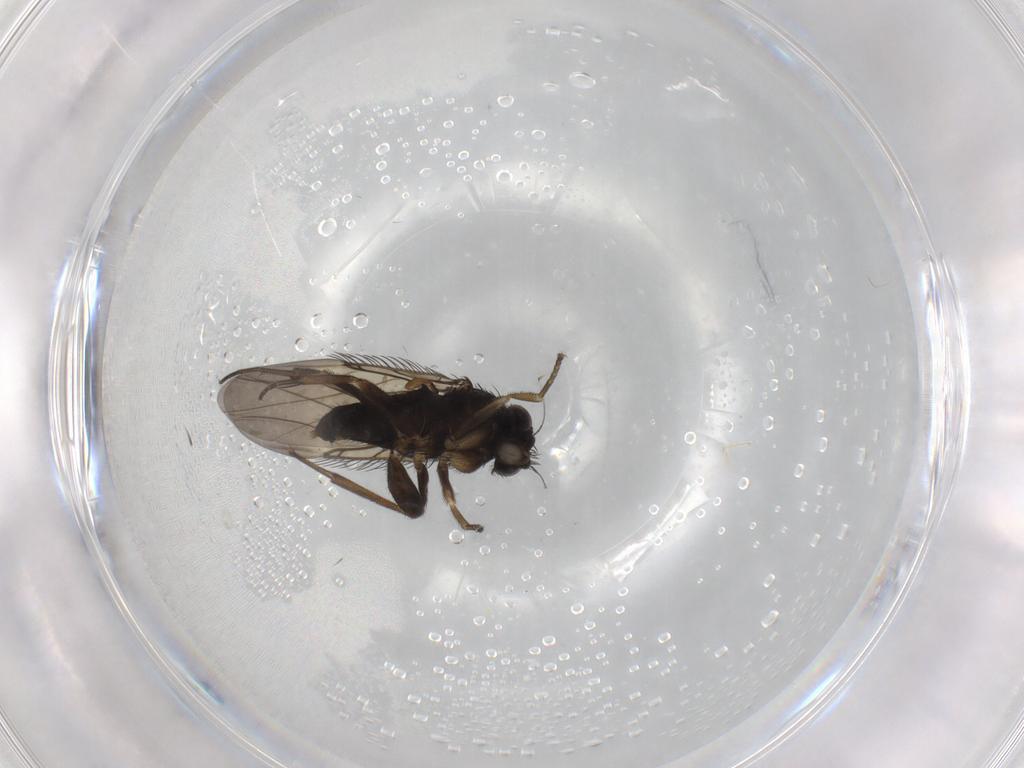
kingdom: Animalia
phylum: Arthropoda
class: Insecta
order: Diptera
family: Phoridae
